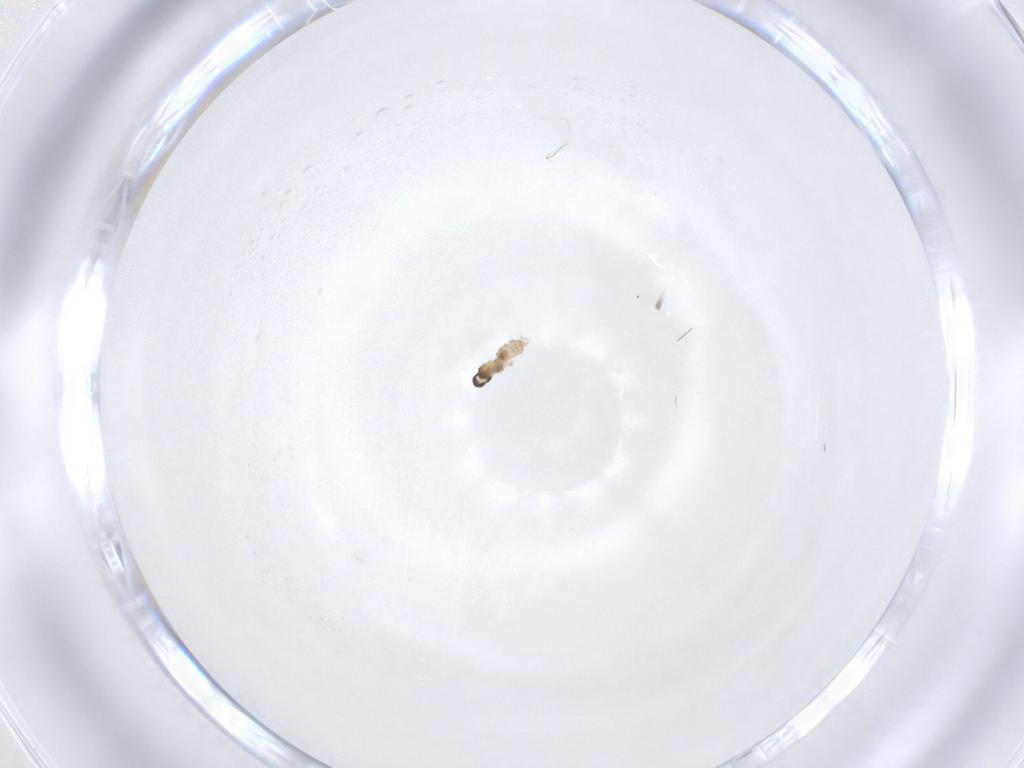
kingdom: Animalia
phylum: Arthropoda
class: Insecta
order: Diptera
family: Cecidomyiidae
